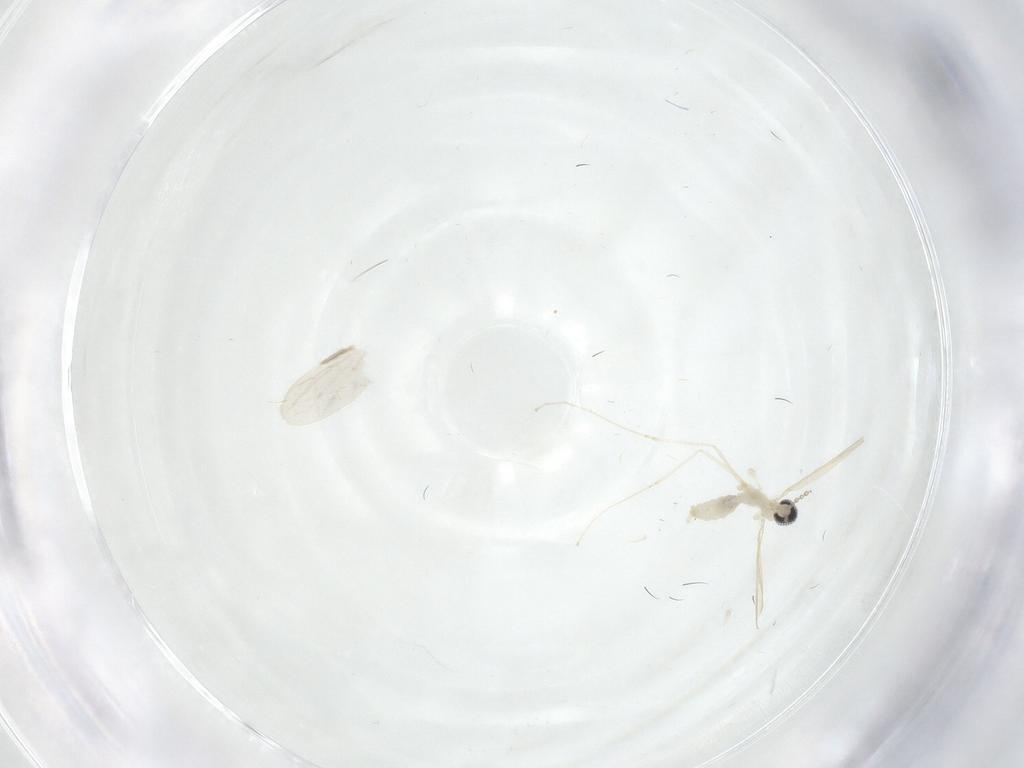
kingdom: Animalia
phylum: Arthropoda
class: Insecta
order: Diptera
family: Cecidomyiidae
